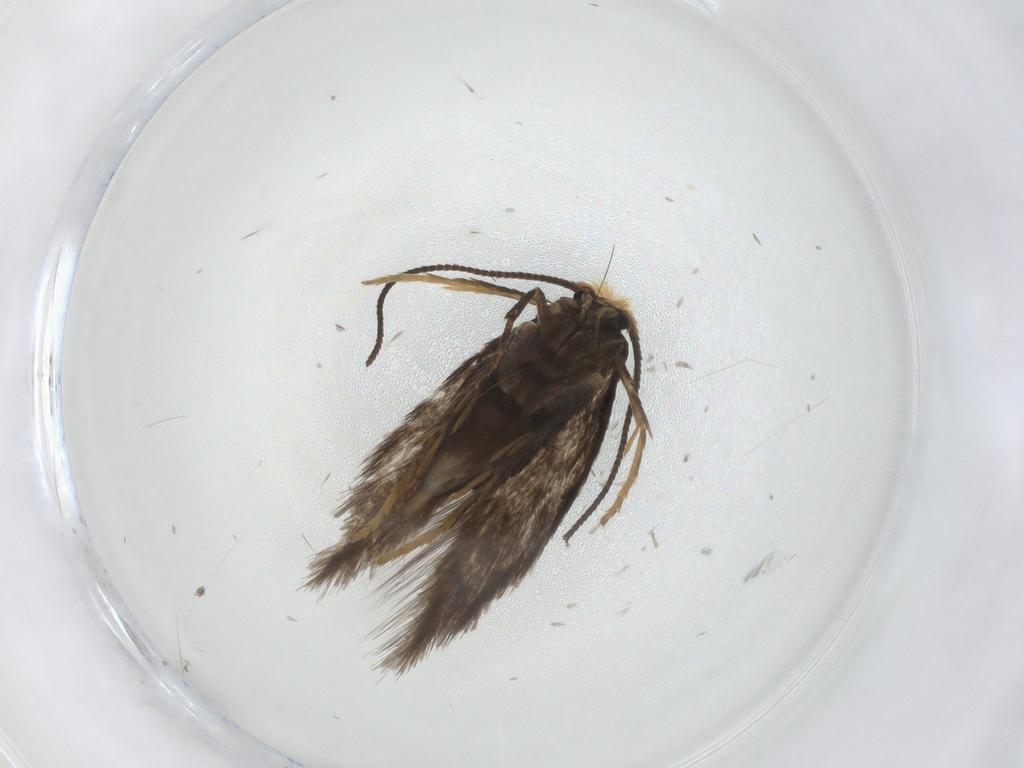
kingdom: Animalia
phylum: Arthropoda
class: Insecta
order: Lepidoptera
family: Nepticulidae
